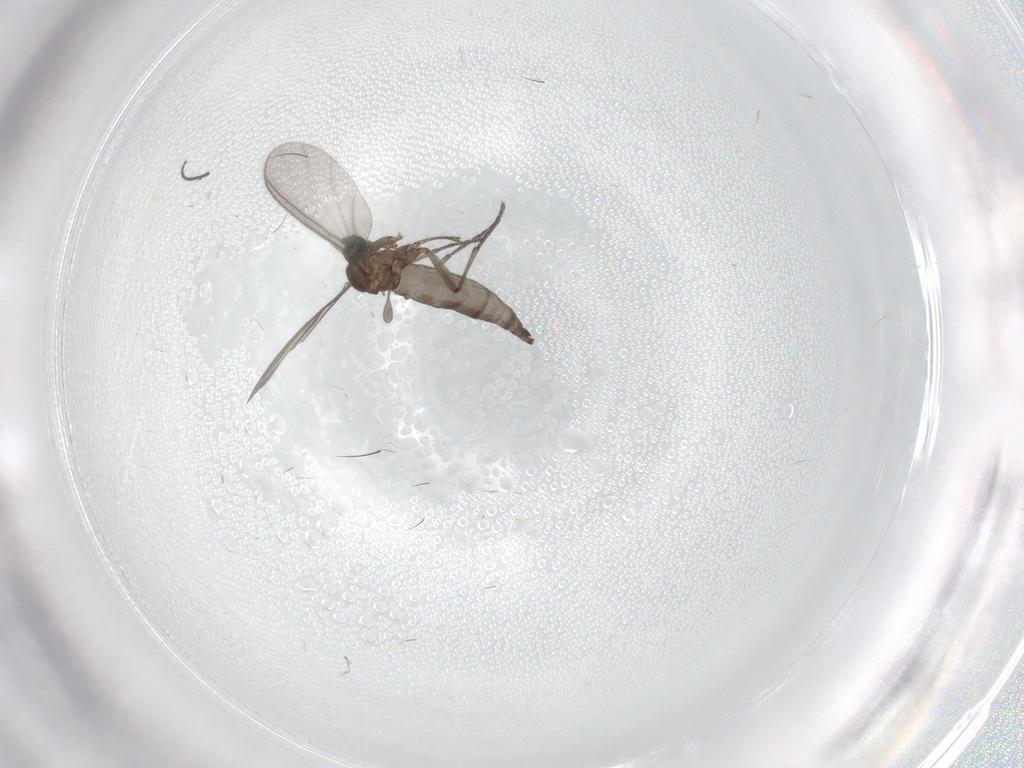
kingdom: Animalia
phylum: Arthropoda
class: Insecta
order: Diptera
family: Sciaridae
